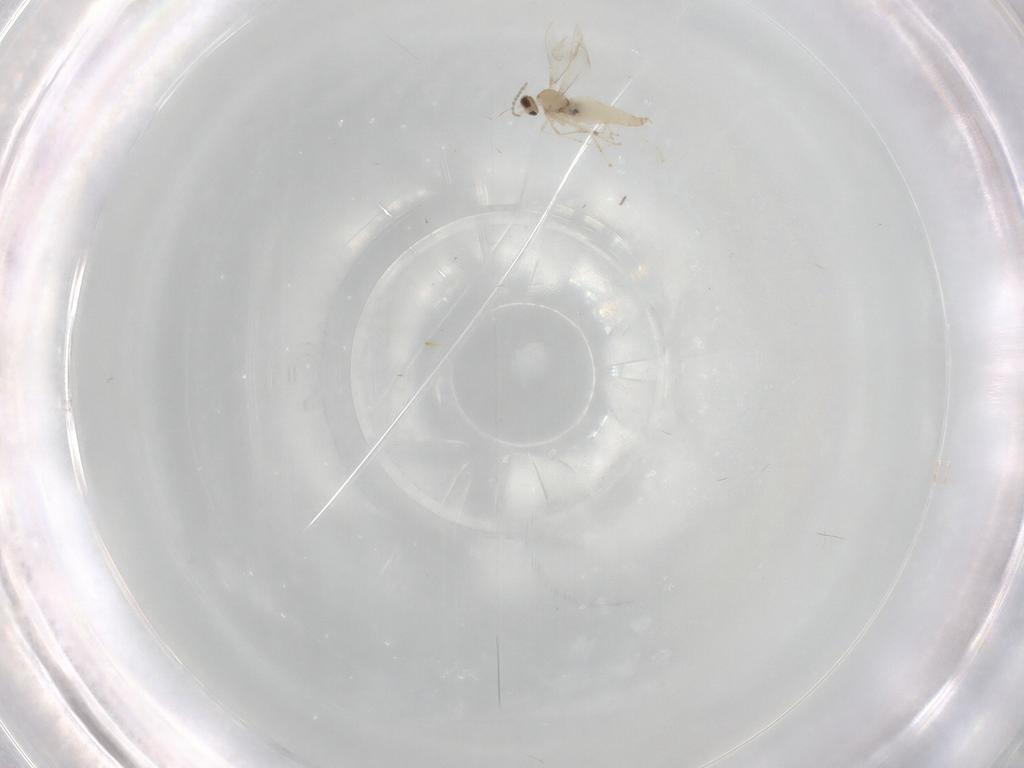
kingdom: Animalia
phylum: Arthropoda
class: Insecta
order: Diptera
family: Cecidomyiidae
